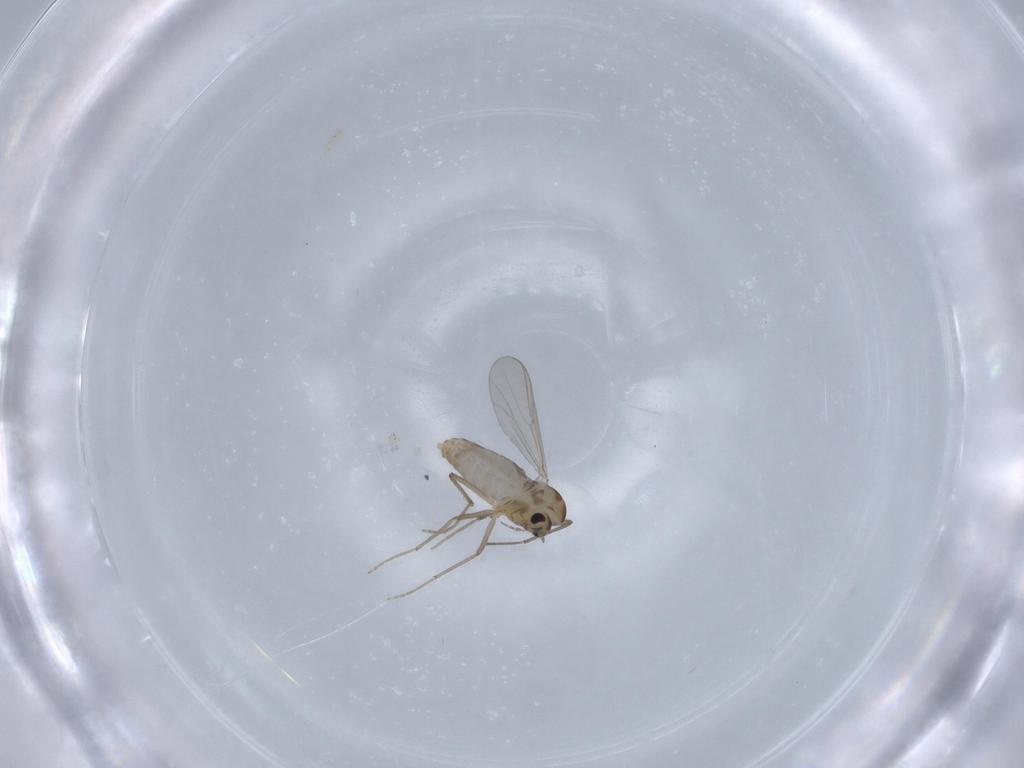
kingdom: Animalia
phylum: Arthropoda
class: Insecta
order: Diptera
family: Chironomidae
